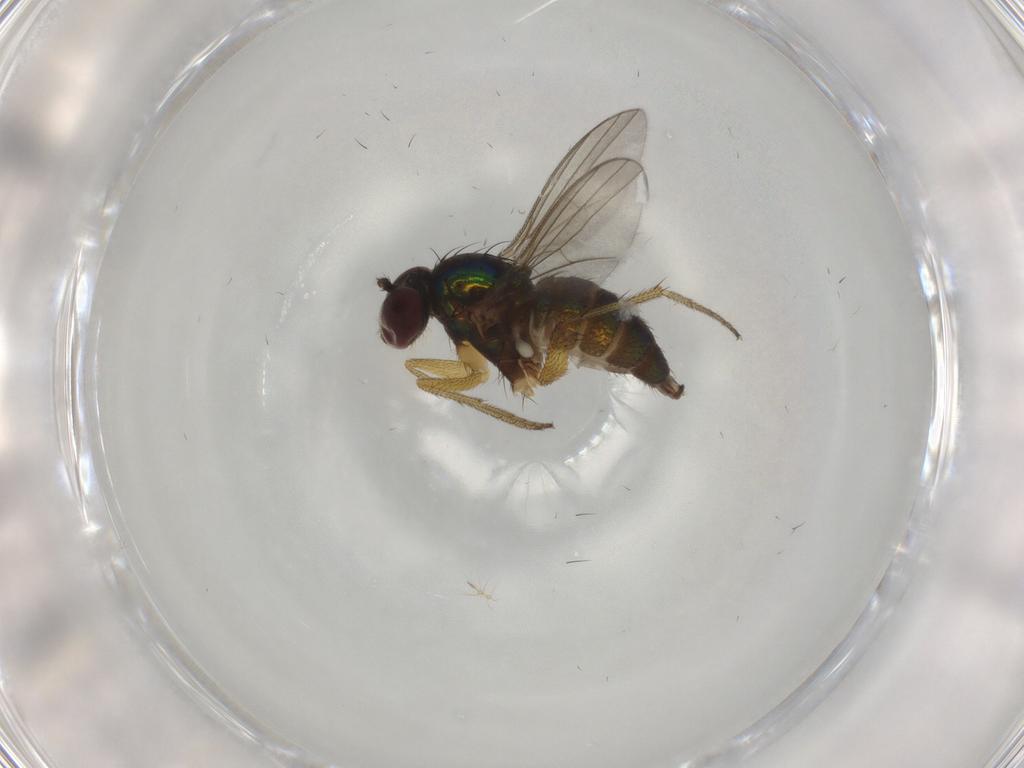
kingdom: Animalia
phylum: Arthropoda
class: Insecta
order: Diptera
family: Dolichopodidae
